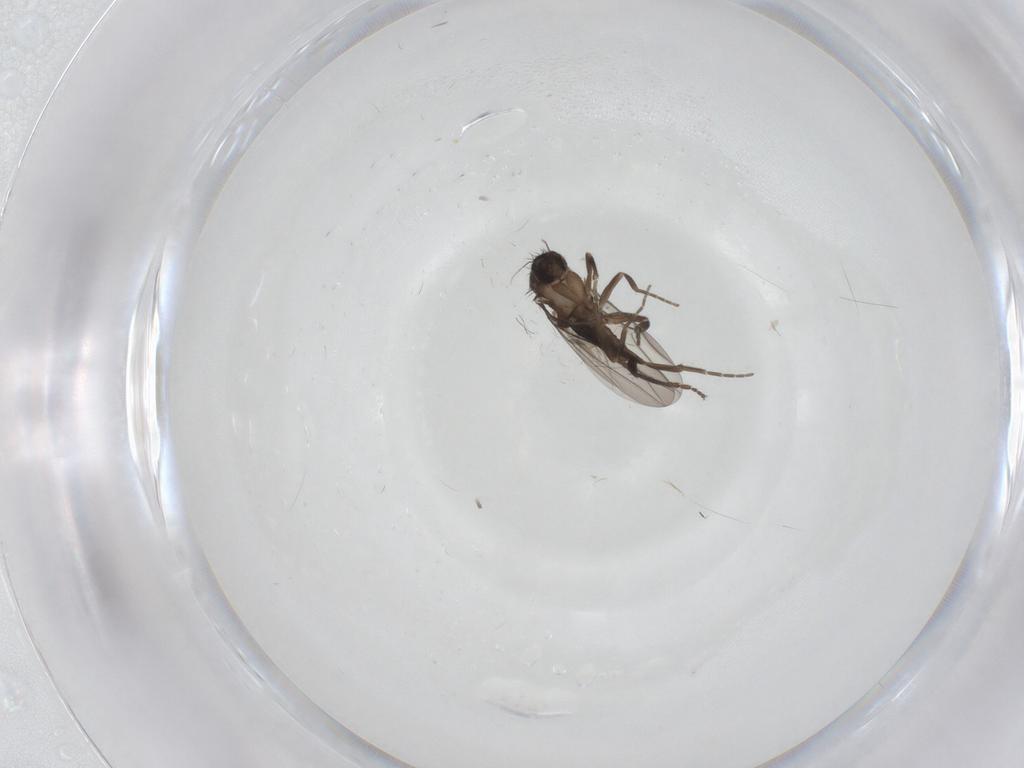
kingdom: Animalia
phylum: Arthropoda
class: Insecta
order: Diptera
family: Sciaridae
